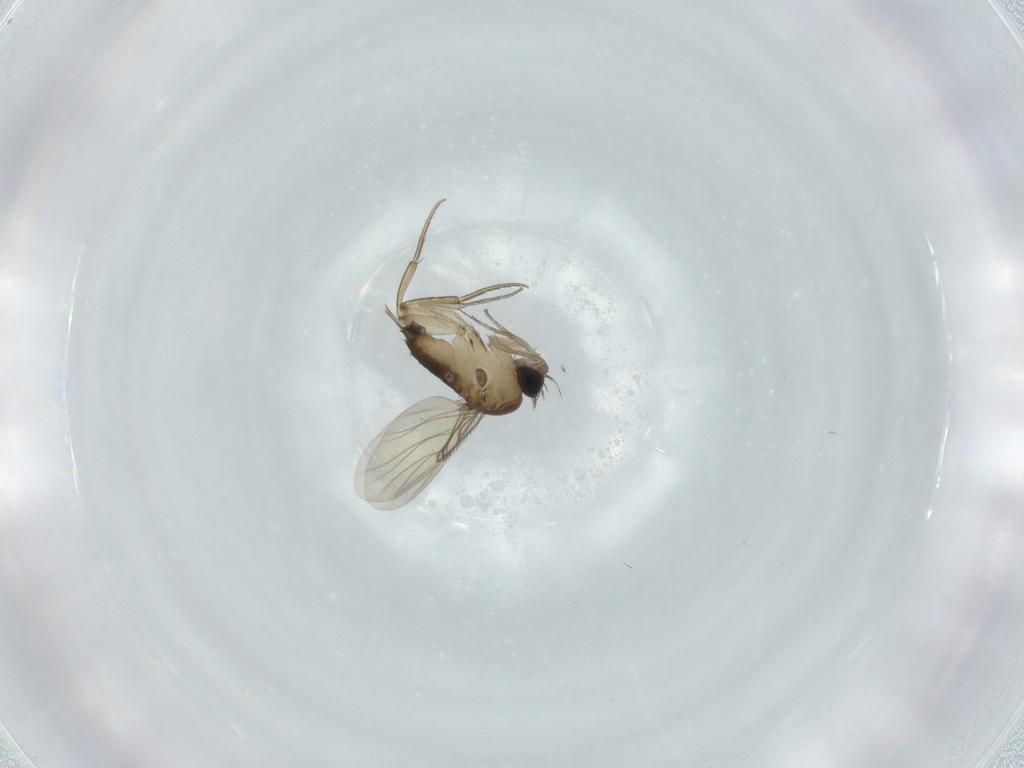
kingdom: Animalia
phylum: Arthropoda
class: Insecta
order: Diptera
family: Phoridae
